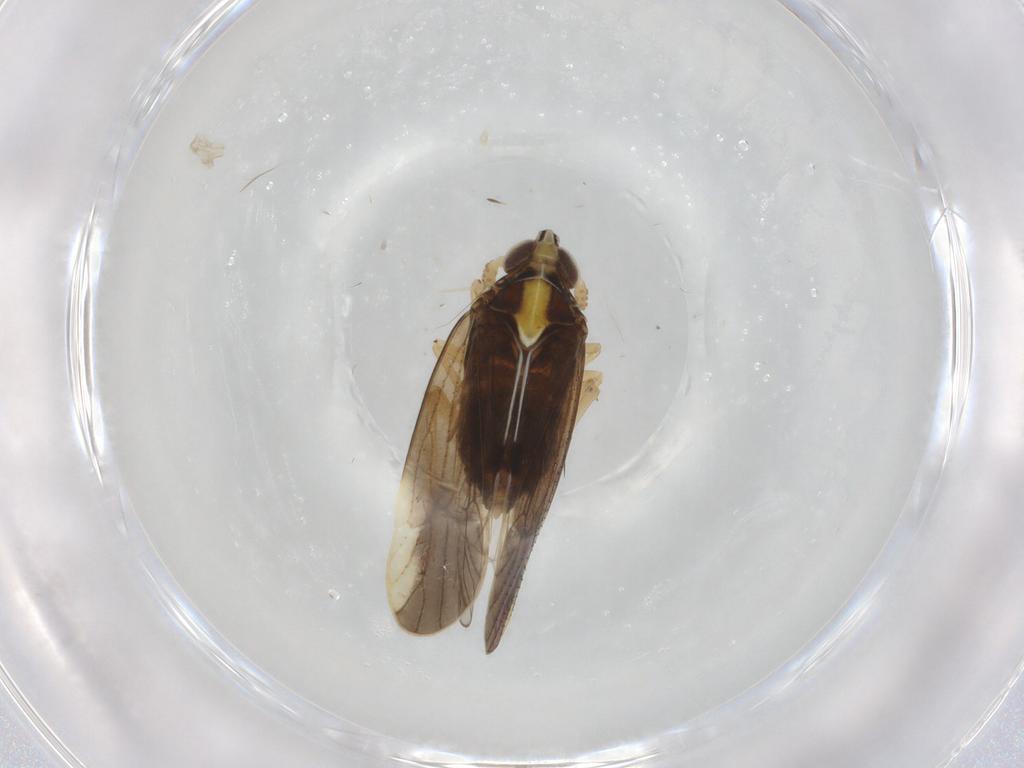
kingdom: Animalia
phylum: Arthropoda
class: Insecta
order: Hemiptera
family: Delphacidae
